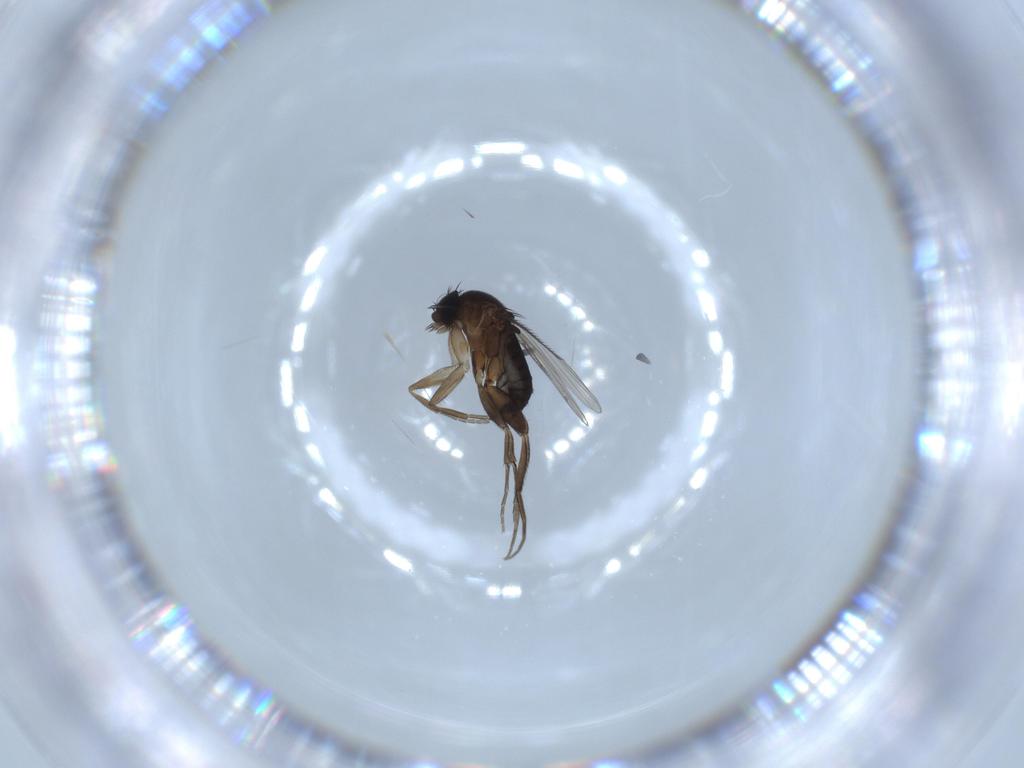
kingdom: Animalia
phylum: Arthropoda
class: Insecta
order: Diptera
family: Phoridae
